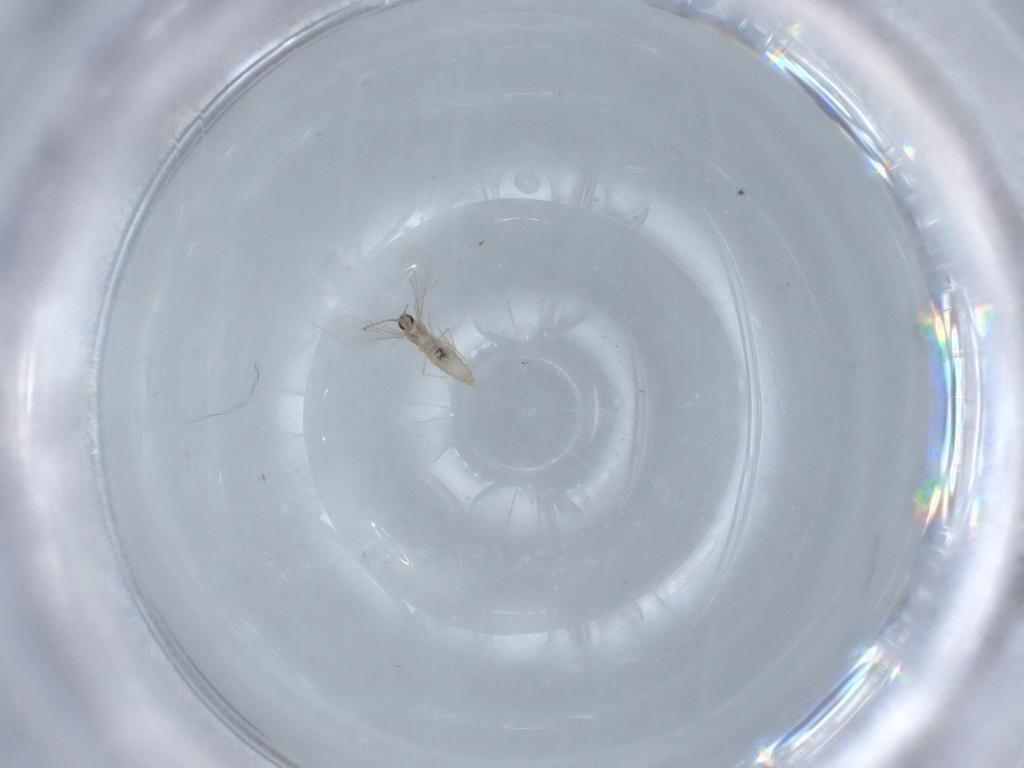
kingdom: Animalia
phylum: Arthropoda
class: Insecta
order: Diptera
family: Cecidomyiidae
